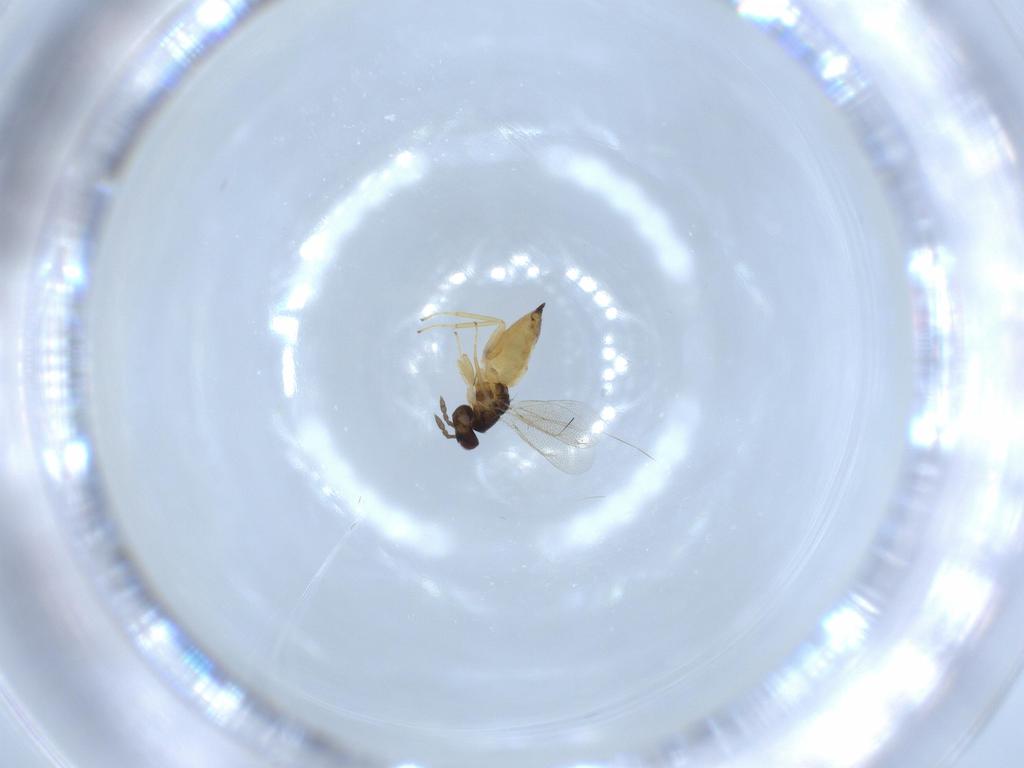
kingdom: Animalia
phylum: Arthropoda
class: Insecta
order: Hymenoptera
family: Eulophidae
